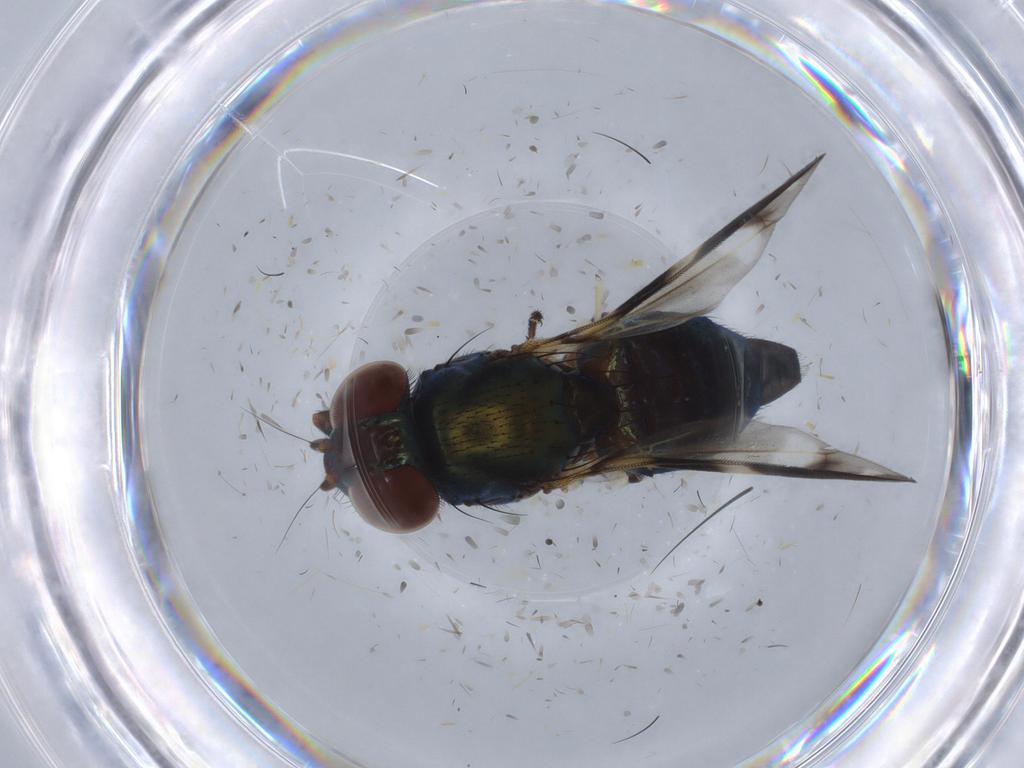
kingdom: Animalia
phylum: Arthropoda
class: Insecta
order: Diptera
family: Ulidiidae
